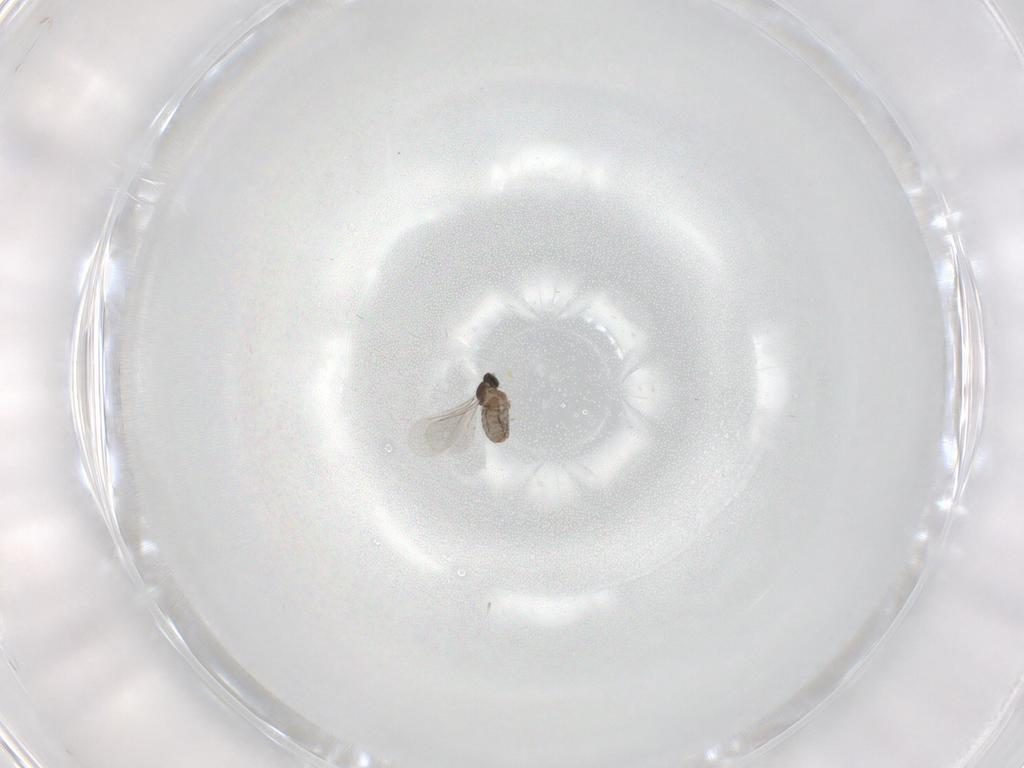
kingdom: Animalia
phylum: Arthropoda
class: Insecta
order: Diptera
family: Cecidomyiidae
